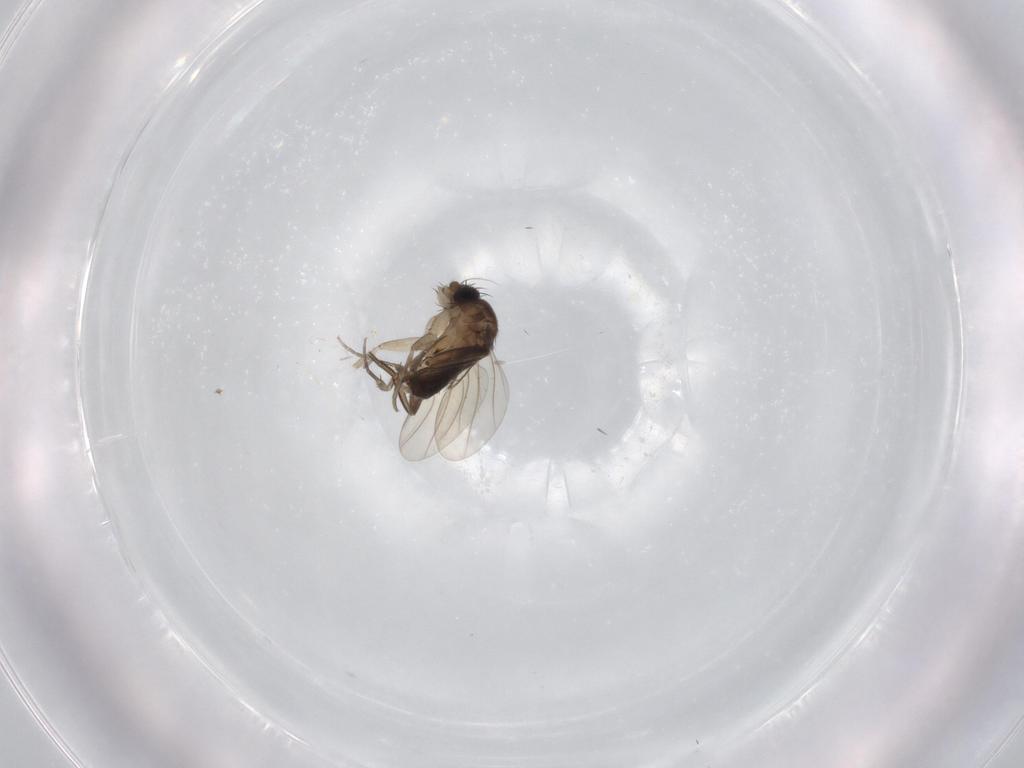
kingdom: Animalia
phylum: Arthropoda
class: Insecta
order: Diptera
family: Phoridae
